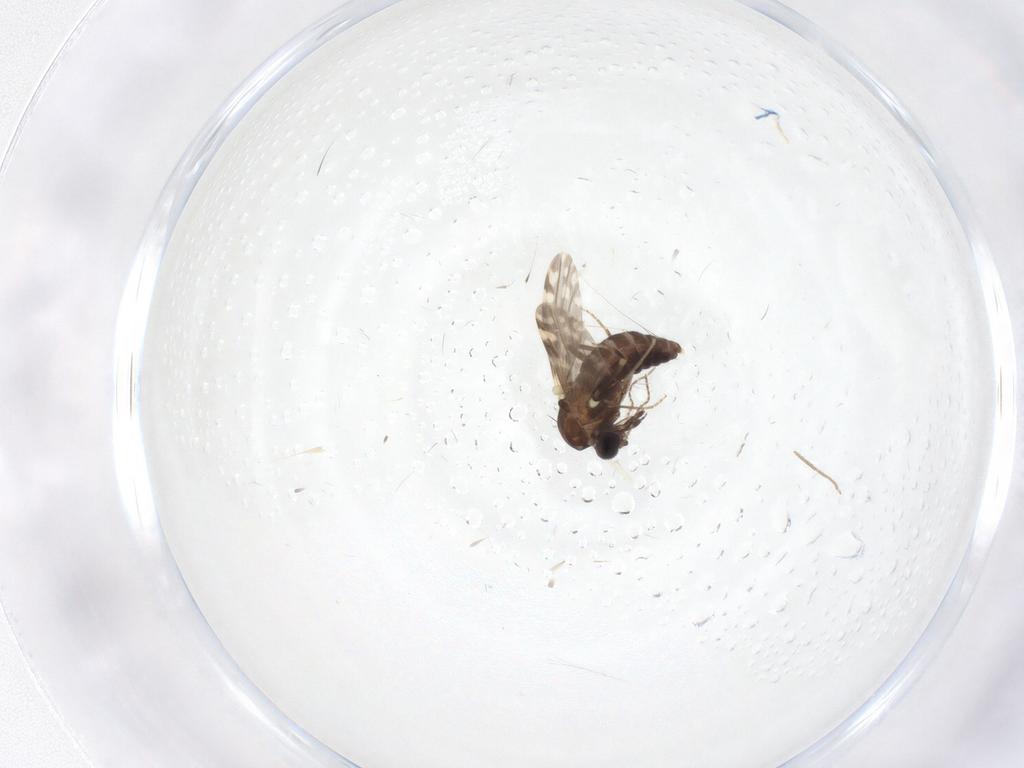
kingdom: Animalia
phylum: Arthropoda
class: Insecta
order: Diptera
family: Cecidomyiidae
